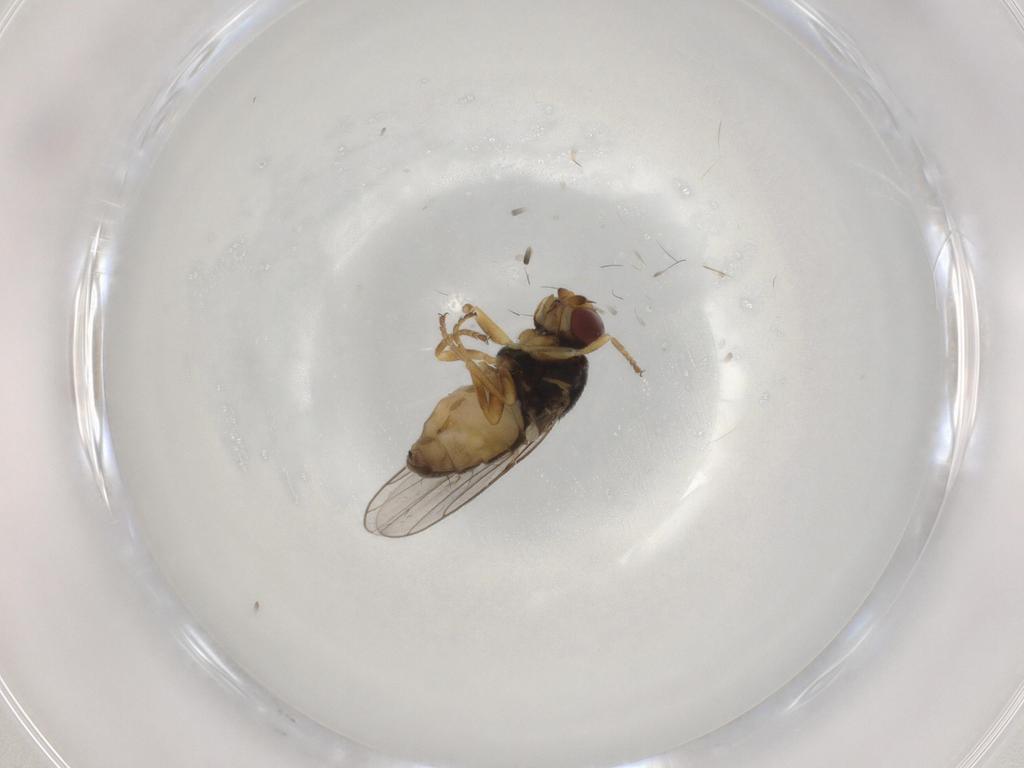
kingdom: Animalia
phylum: Arthropoda
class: Insecta
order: Diptera
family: Chloropidae
